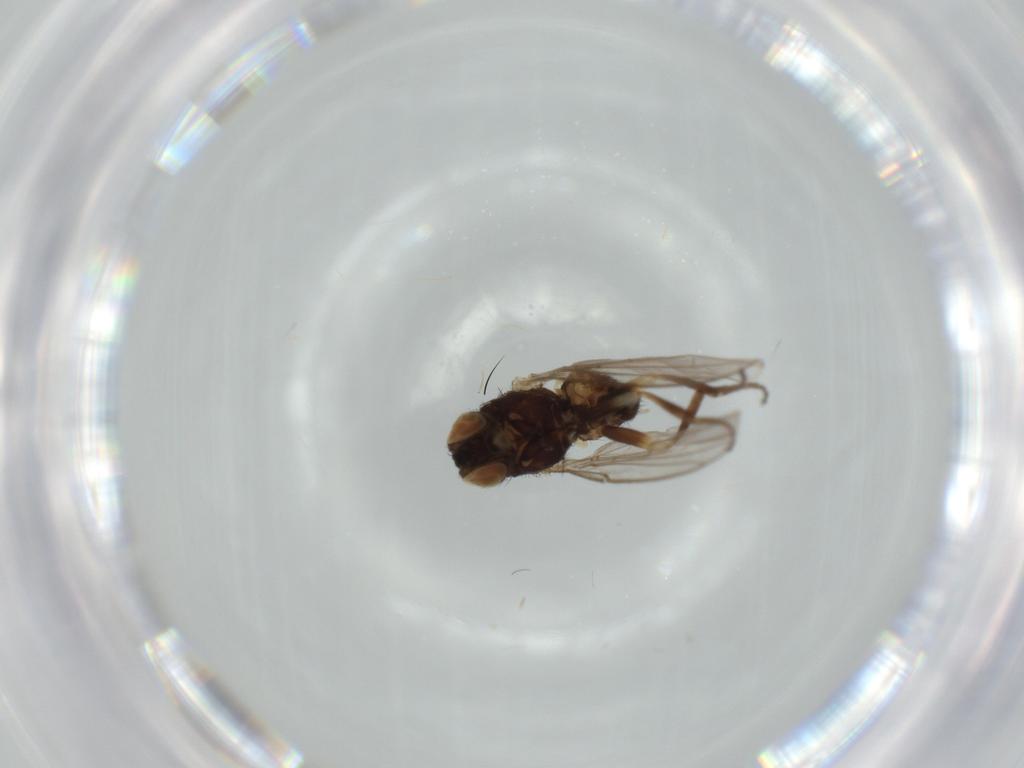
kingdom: Animalia
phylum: Arthropoda
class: Insecta
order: Diptera
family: Agromyzidae
